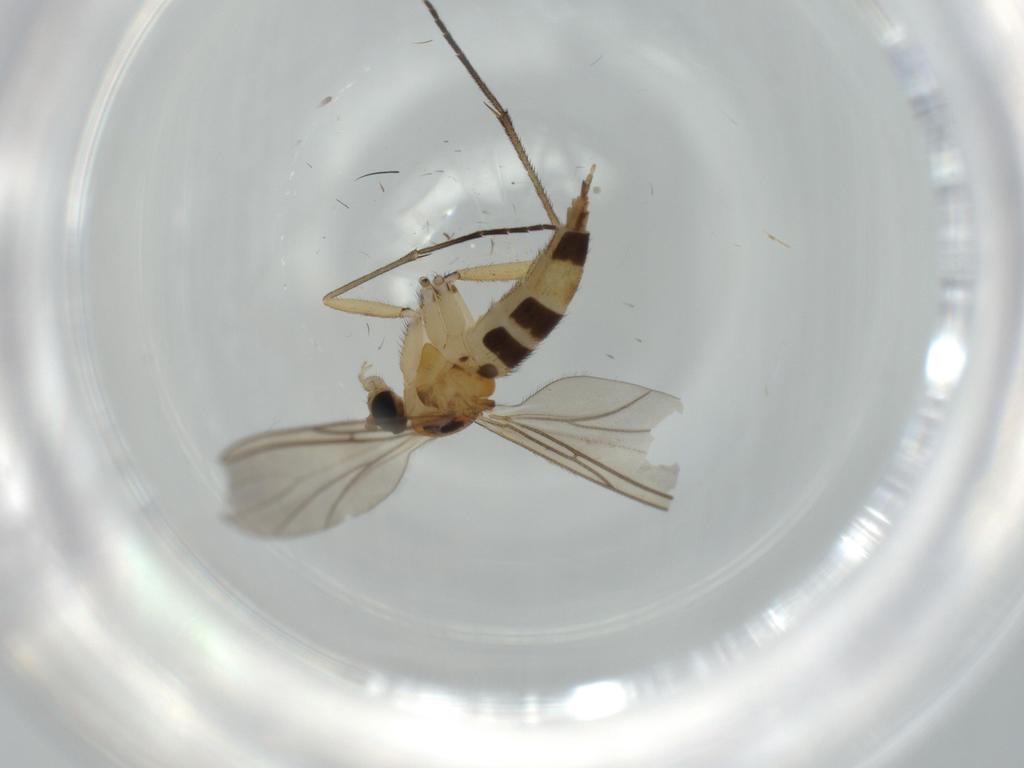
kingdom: Animalia
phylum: Arthropoda
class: Insecta
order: Diptera
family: Sciaridae
